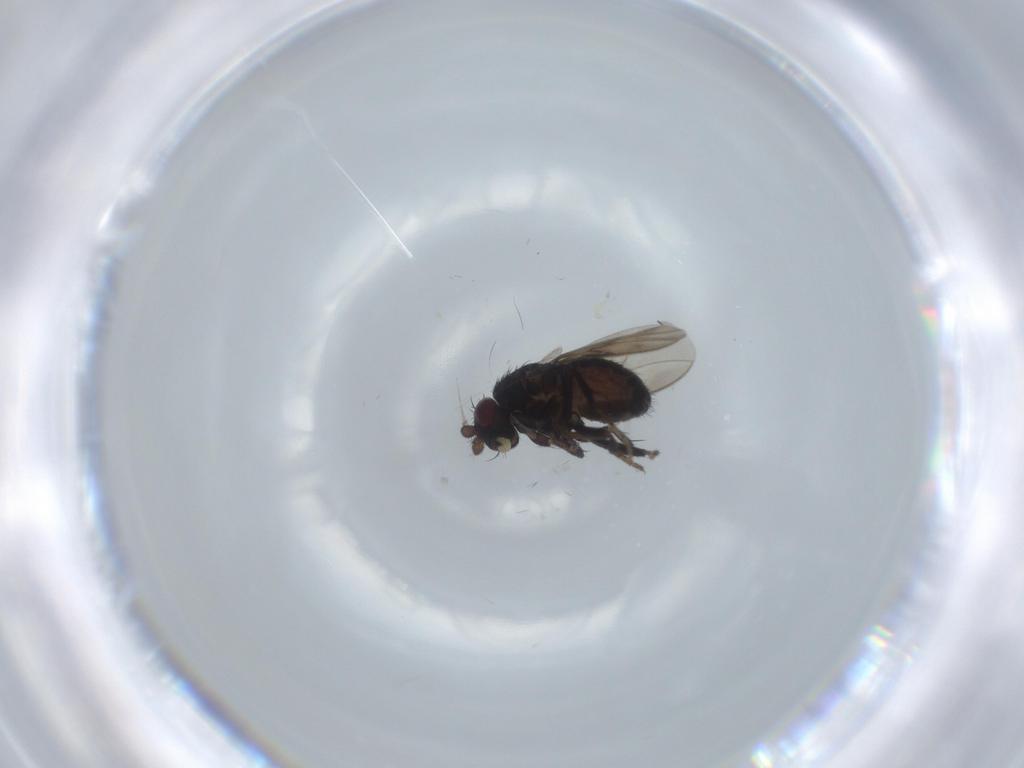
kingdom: Animalia
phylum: Arthropoda
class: Insecta
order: Diptera
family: Sphaeroceridae
